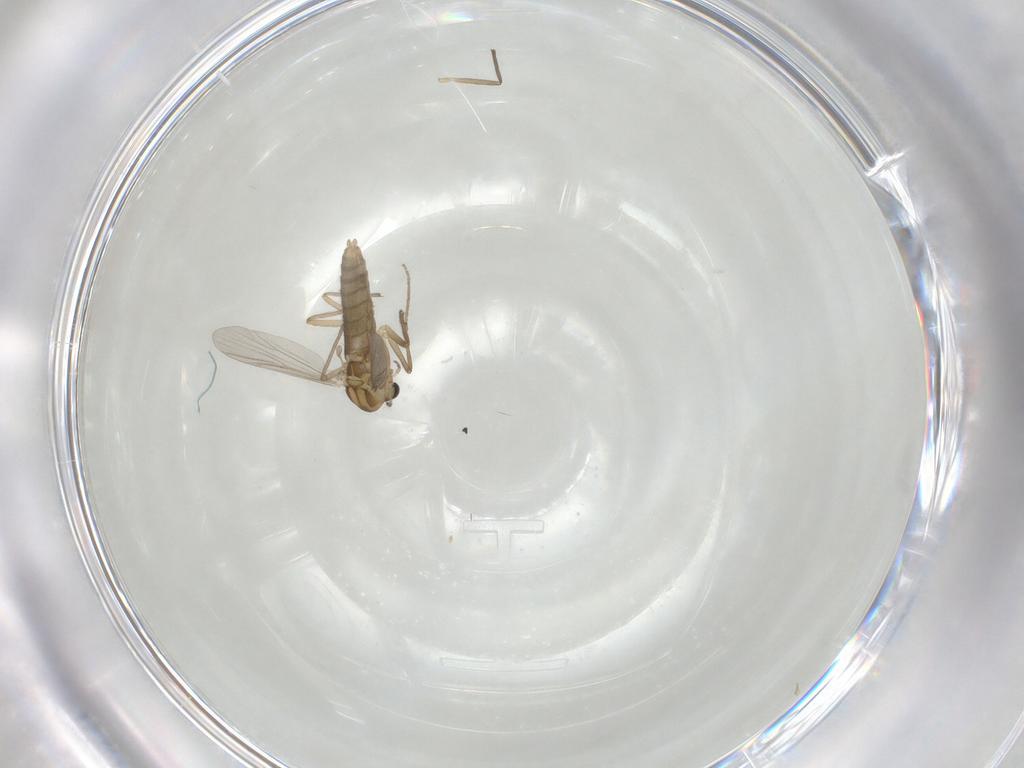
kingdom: Animalia
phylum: Arthropoda
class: Insecta
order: Diptera
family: Chironomidae
